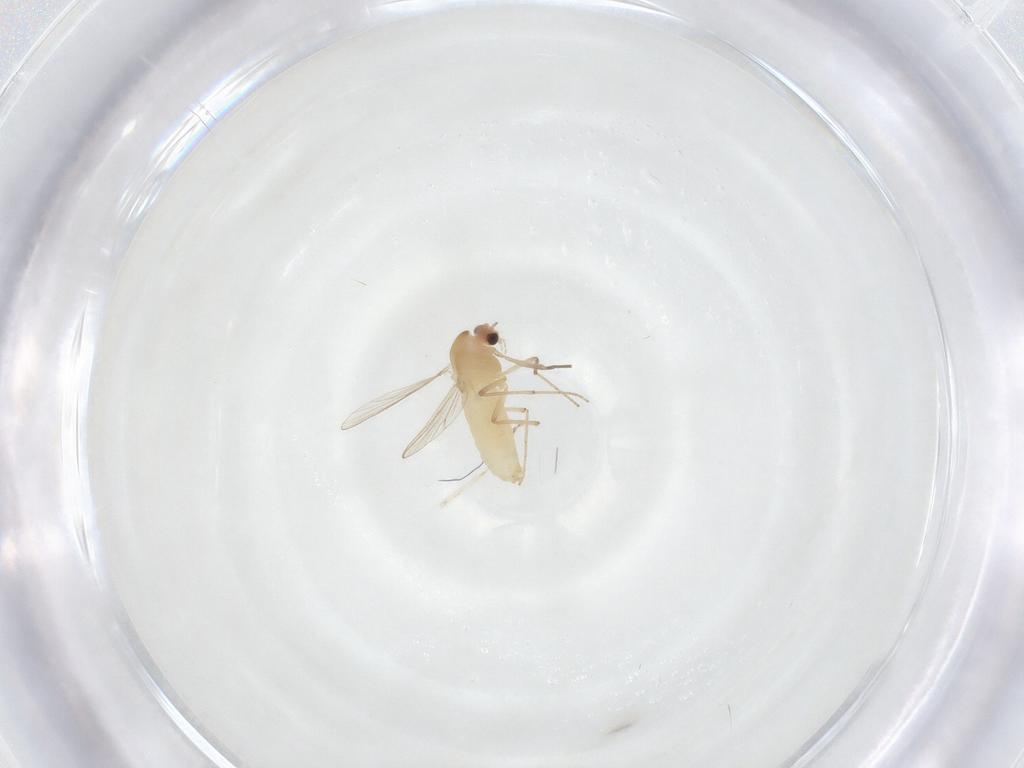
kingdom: Animalia
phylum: Arthropoda
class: Insecta
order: Diptera
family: Chironomidae
